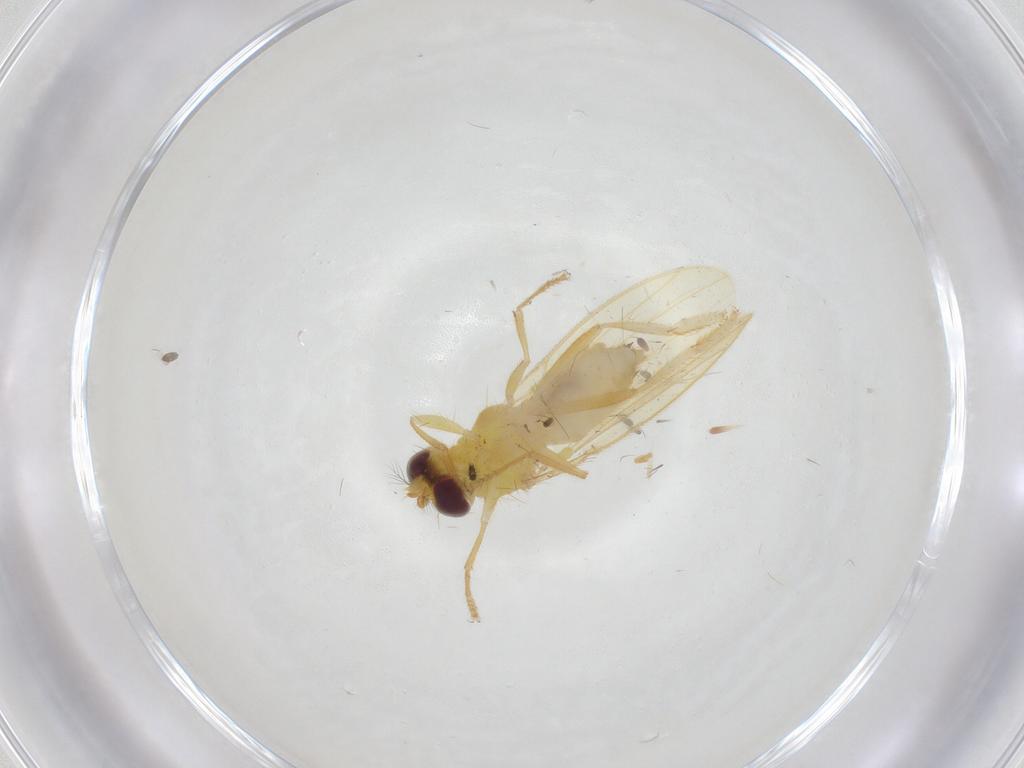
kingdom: Animalia
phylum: Arthropoda
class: Insecta
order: Diptera
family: Periscelididae
